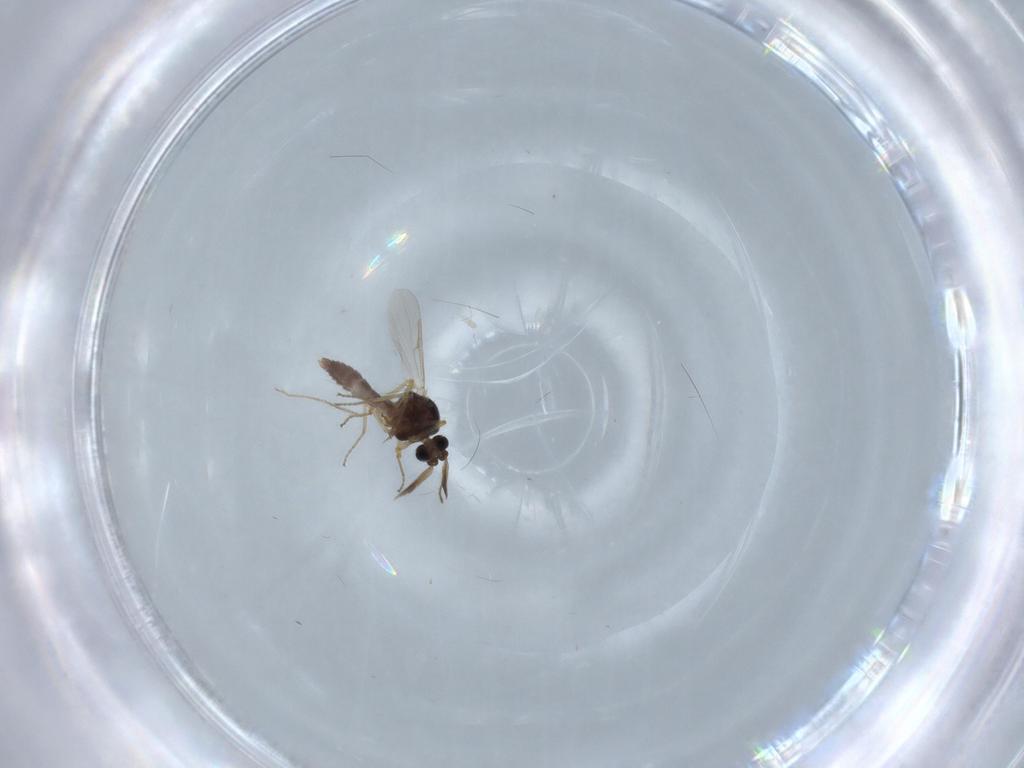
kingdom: Animalia
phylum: Arthropoda
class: Insecta
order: Diptera
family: Ceratopogonidae
